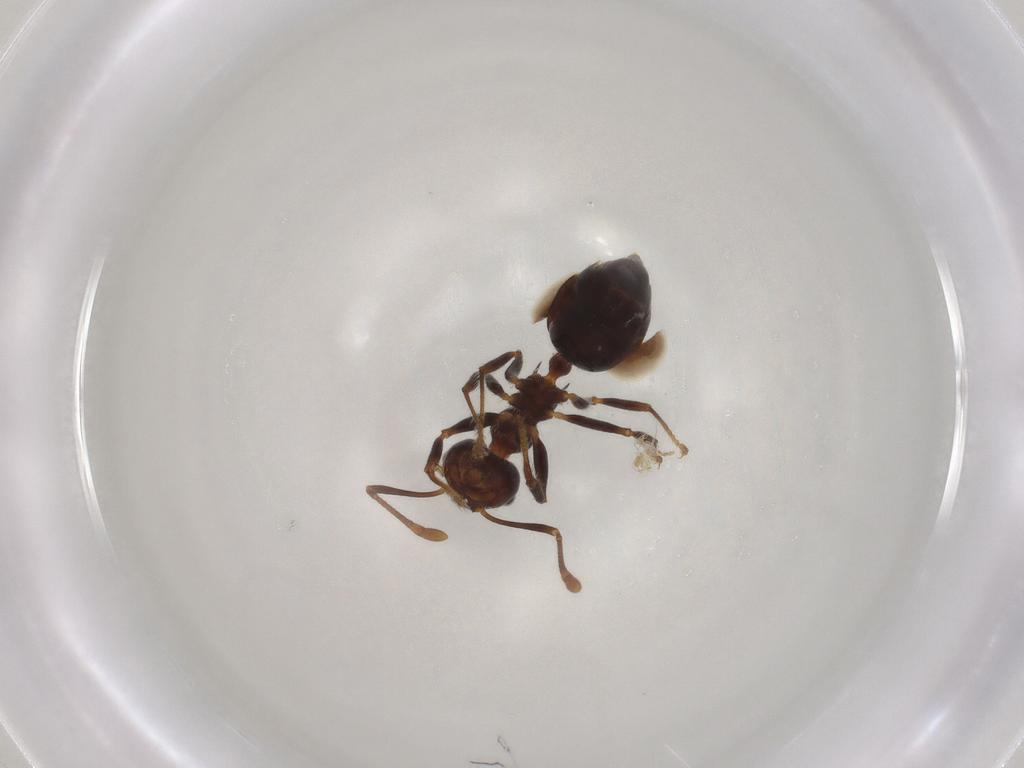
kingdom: Animalia
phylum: Arthropoda
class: Insecta
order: Hymenoptera
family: Formicidae
